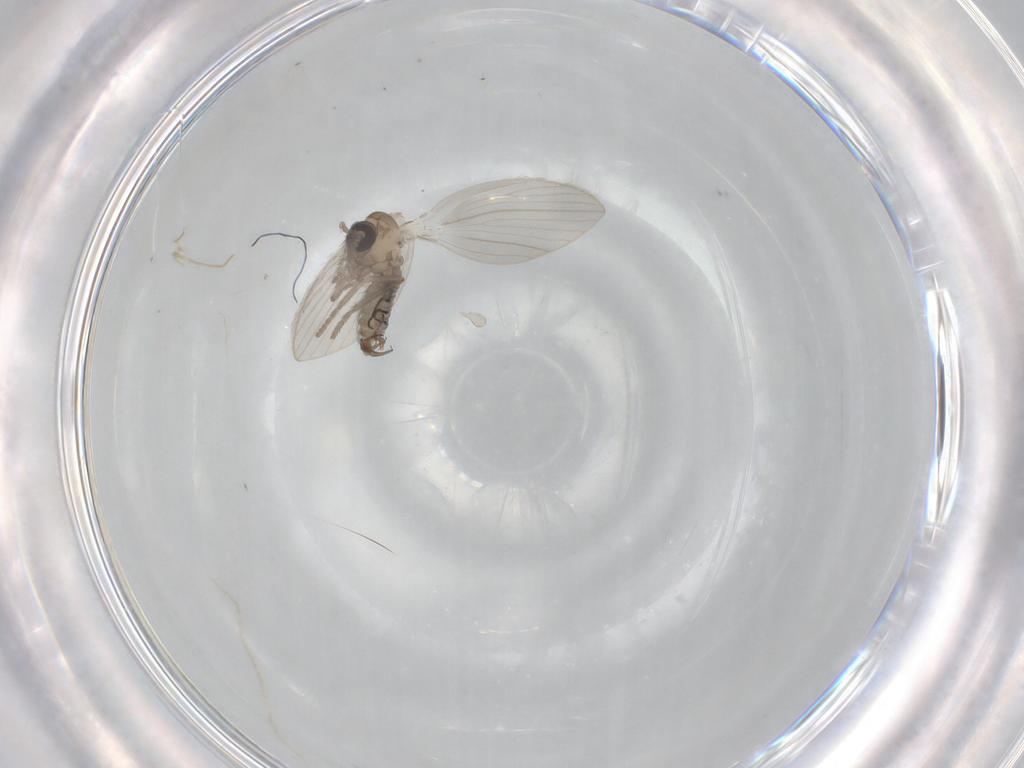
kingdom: Animalia
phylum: Arthropoda
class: Insecta
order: Diptera
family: Psychodidae
